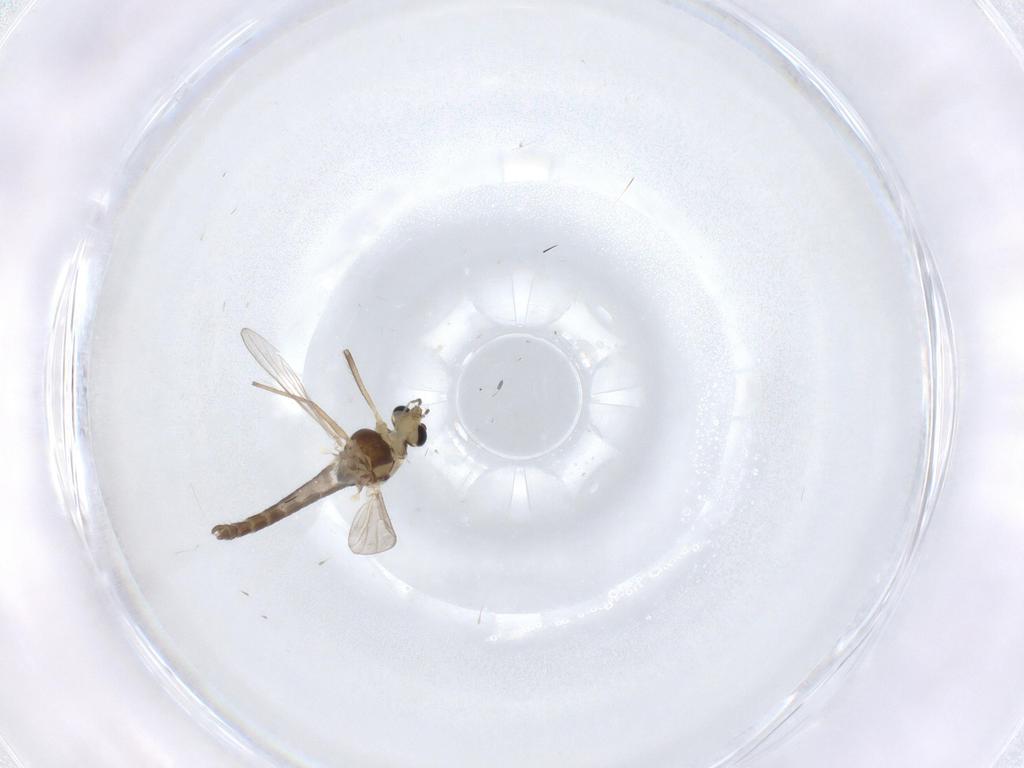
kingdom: Animalia
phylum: Arthropoda
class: Insecta
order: Diptera
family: Chironomidae
